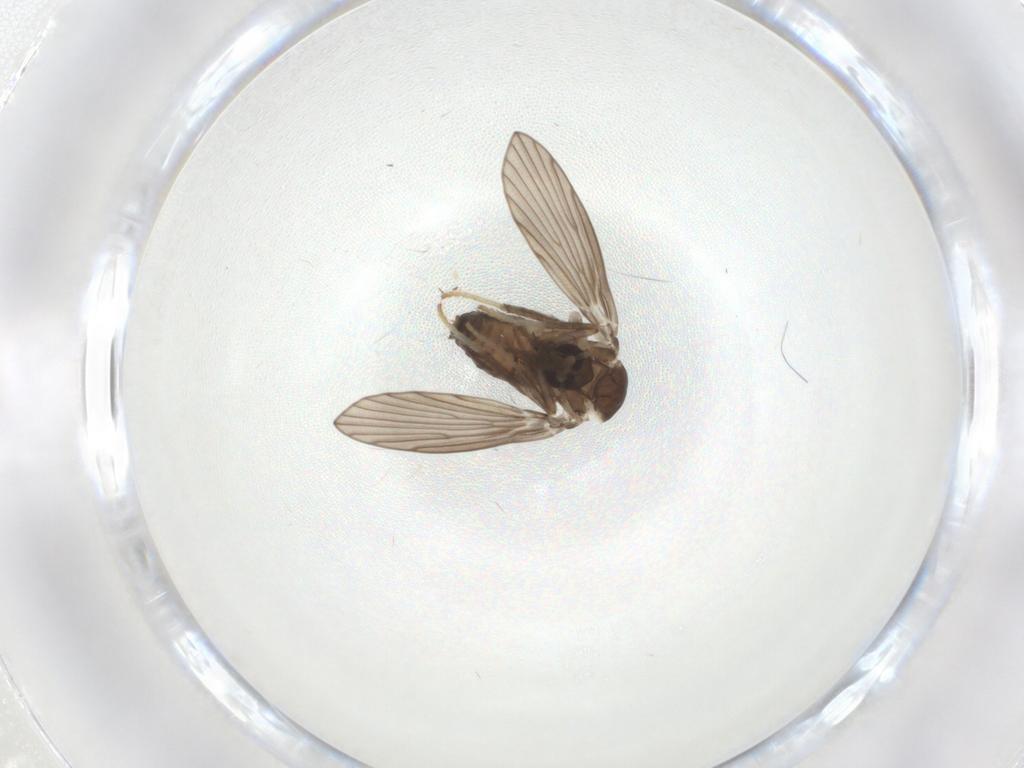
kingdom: Animalia
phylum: Arthropoda
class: Insecta
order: Diptera
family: Psychodidae
